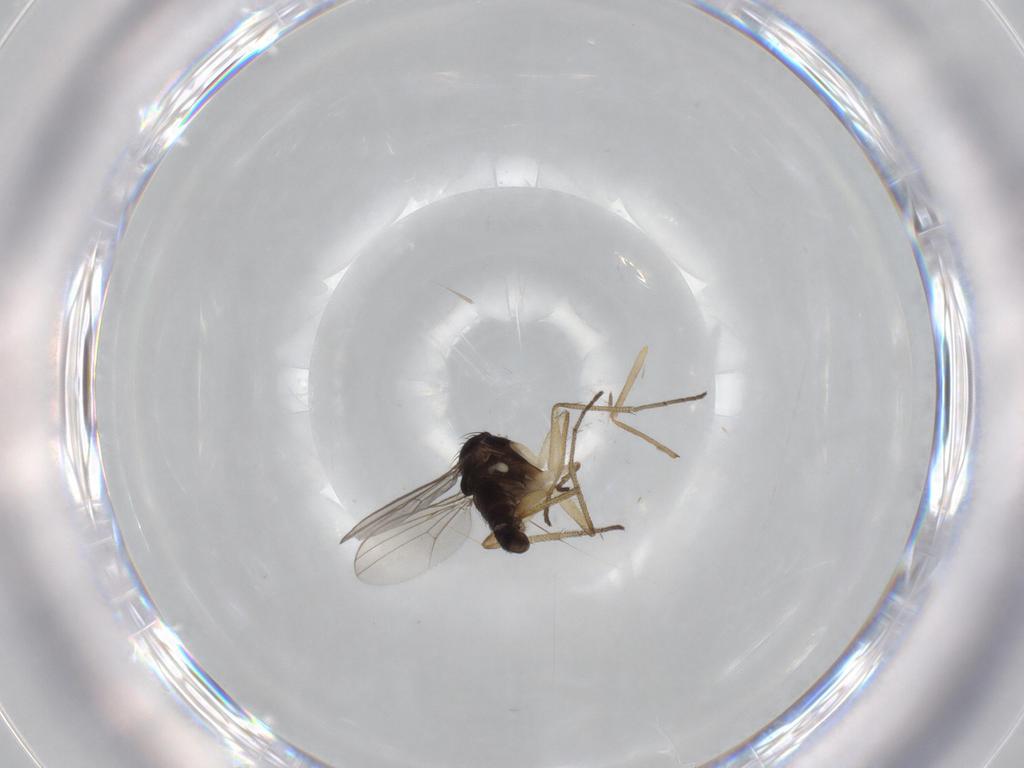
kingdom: Animalia
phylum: Arthropoda
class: Insecta
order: Diptera
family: Dolichopodidae
